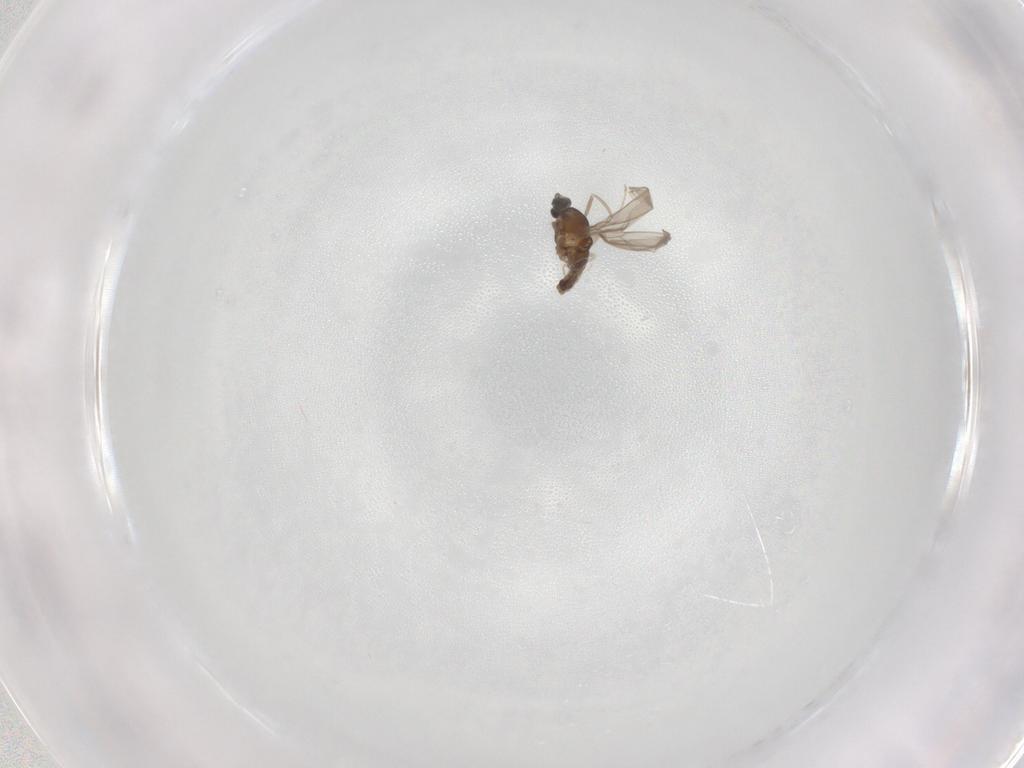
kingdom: Animalia
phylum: Arthropoda
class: Insecta
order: Diptera
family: Cecidomyiidae
